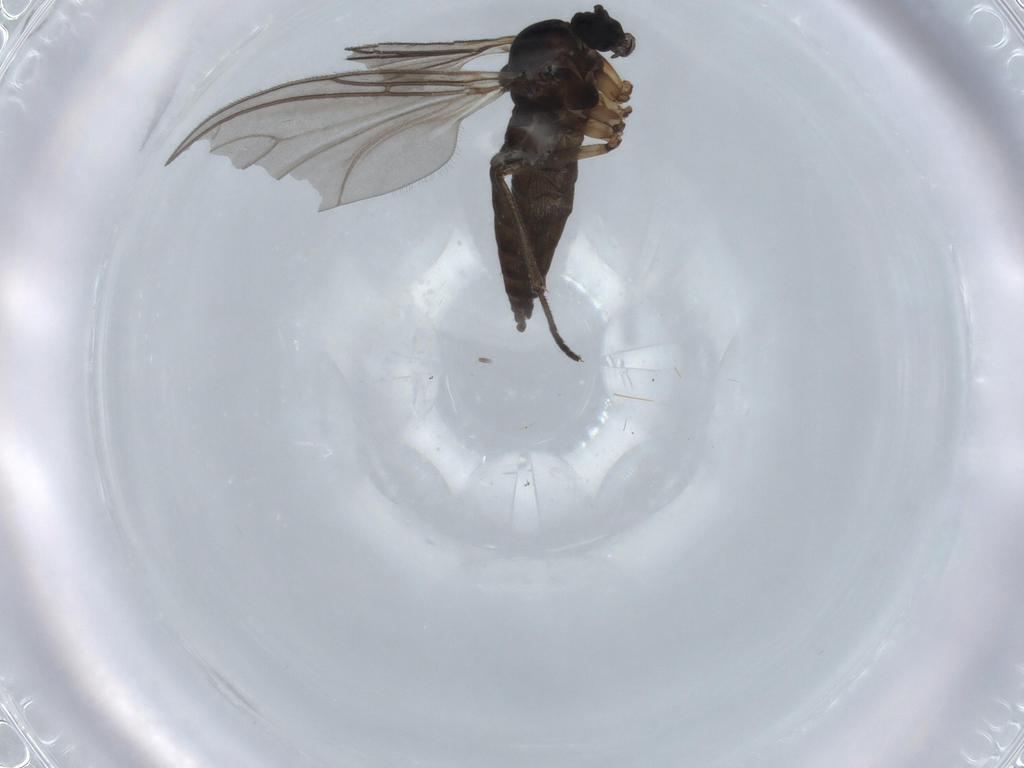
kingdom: Animalia
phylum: Arthropoda
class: Insecta
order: Diptera
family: Sciaridae
